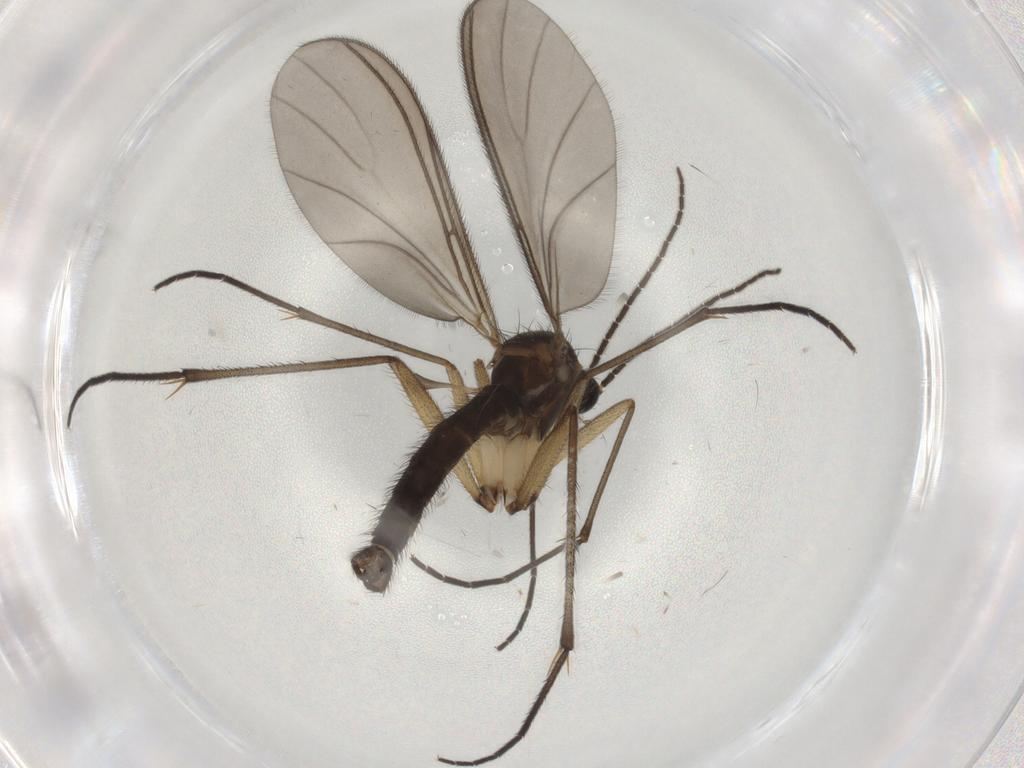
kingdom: Animalia
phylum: Arthropoda
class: Insecta
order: Diptera
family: Sciaridae
